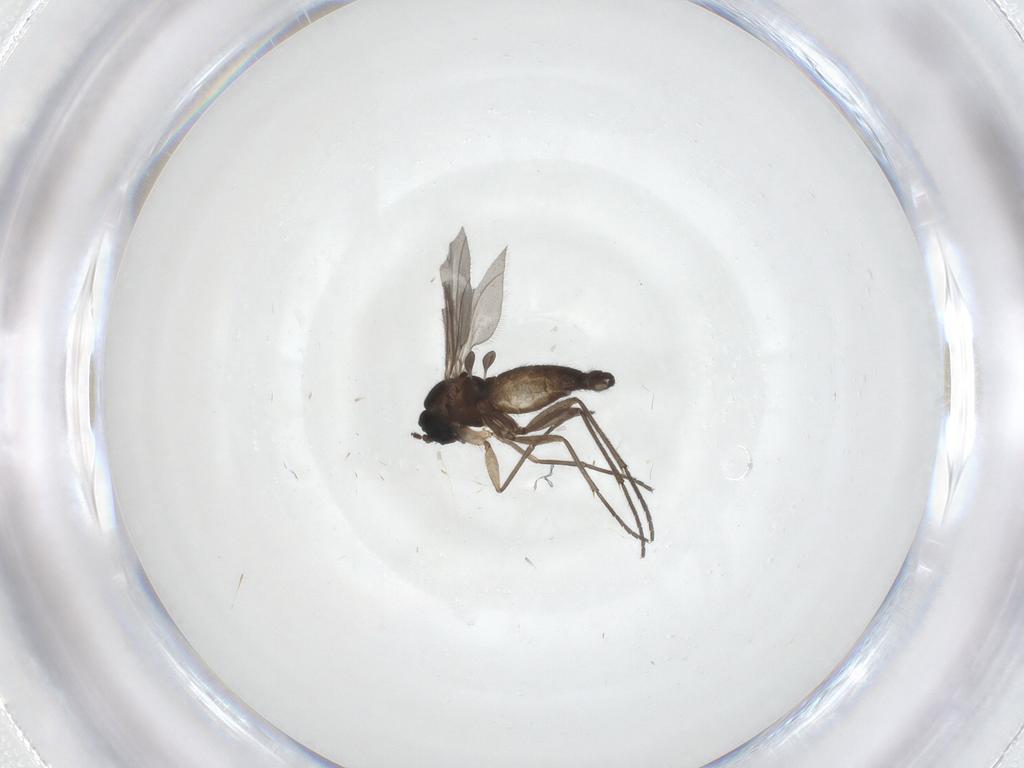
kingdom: Animalia
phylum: Arthropoda
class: Insecta
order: Diptera
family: Sciaridae
